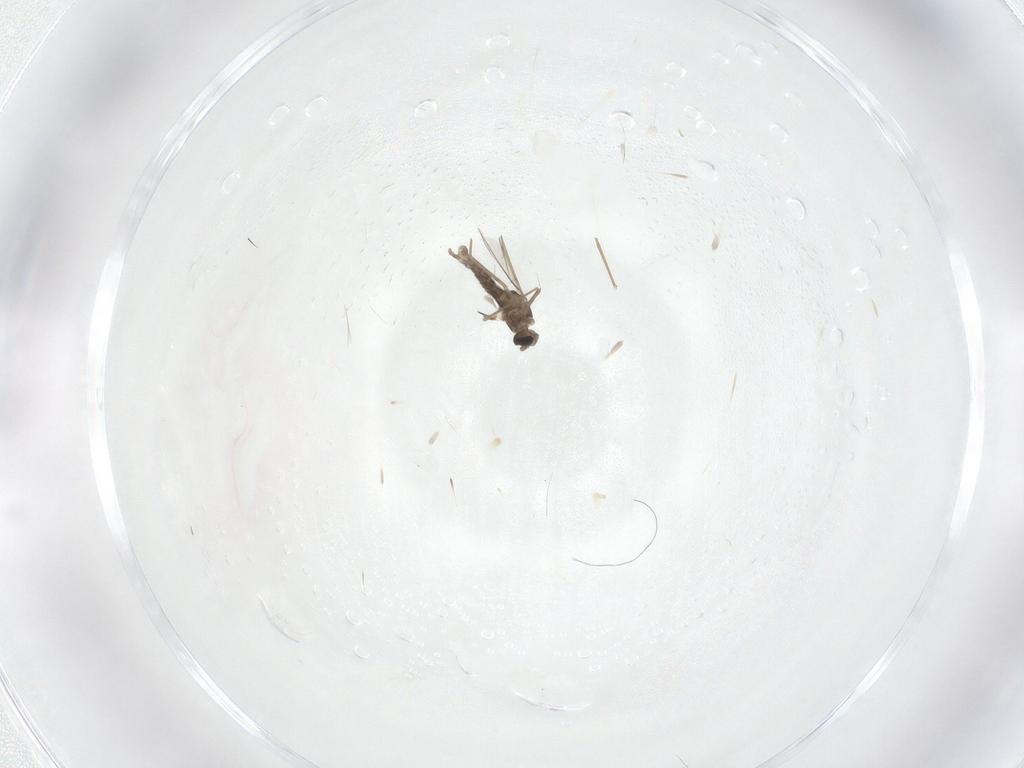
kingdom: Animalia
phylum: Arthropoda
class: Insecta
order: Diptera
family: Cecidomyiidae
